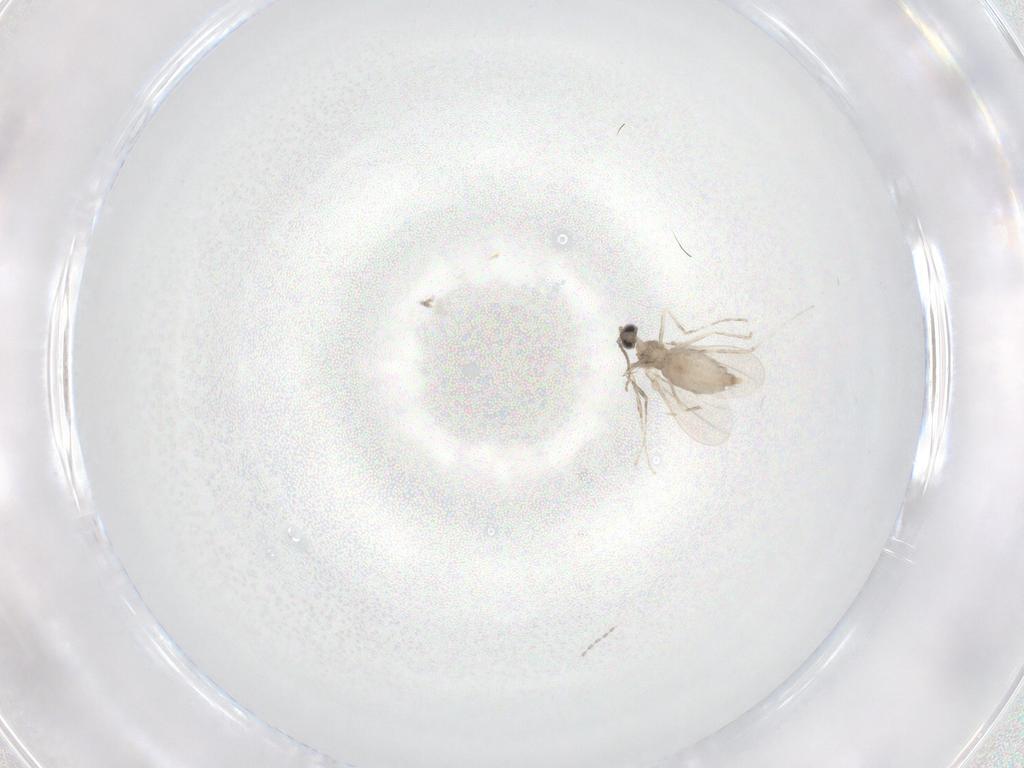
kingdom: Animalia
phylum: Arthropoda
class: Insecta
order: Diptera
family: Cecidomyiidae
